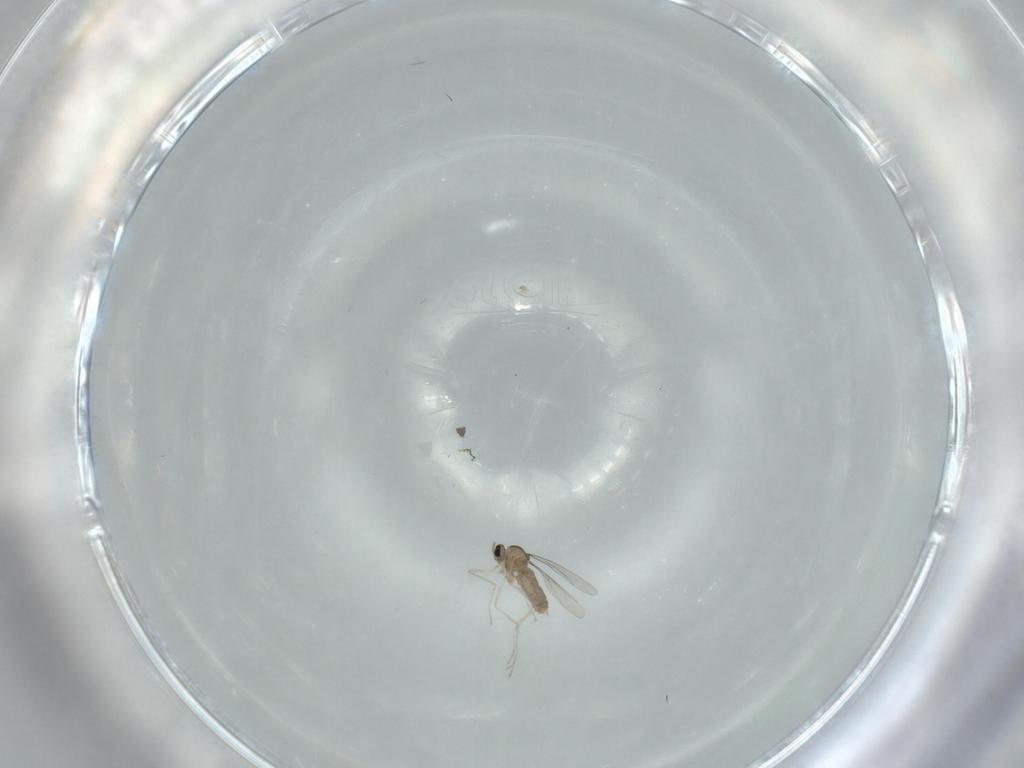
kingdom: Animalia
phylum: Arthropoda
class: Insecta
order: Diptera
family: Cecidomyiidae
